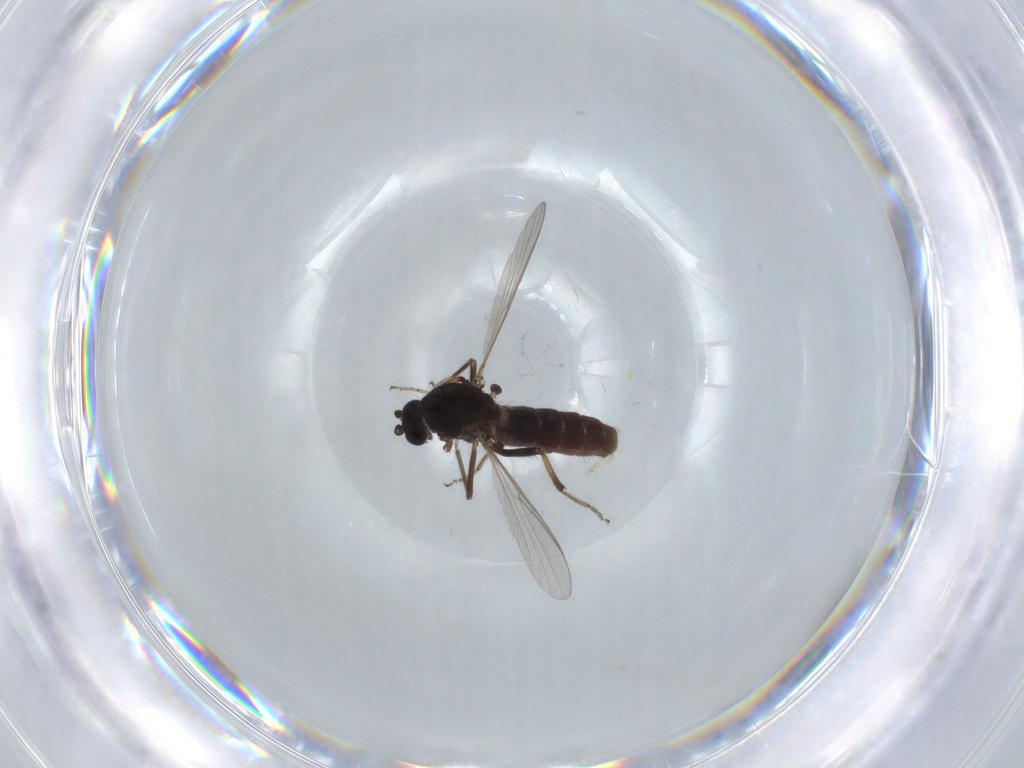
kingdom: Animalia
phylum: Arthropoda
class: Insecta
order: Diptera
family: Ceratopogonidae
